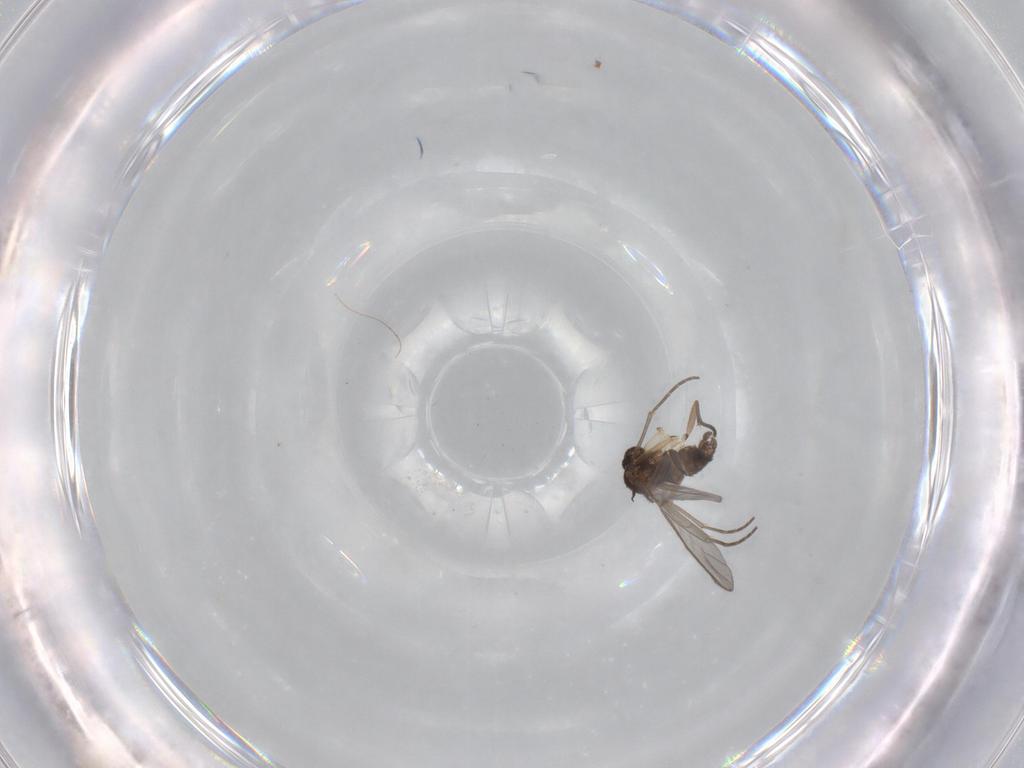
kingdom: Animalia
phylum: Arthropoda
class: Insecta
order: Diptera
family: Sciaridae
